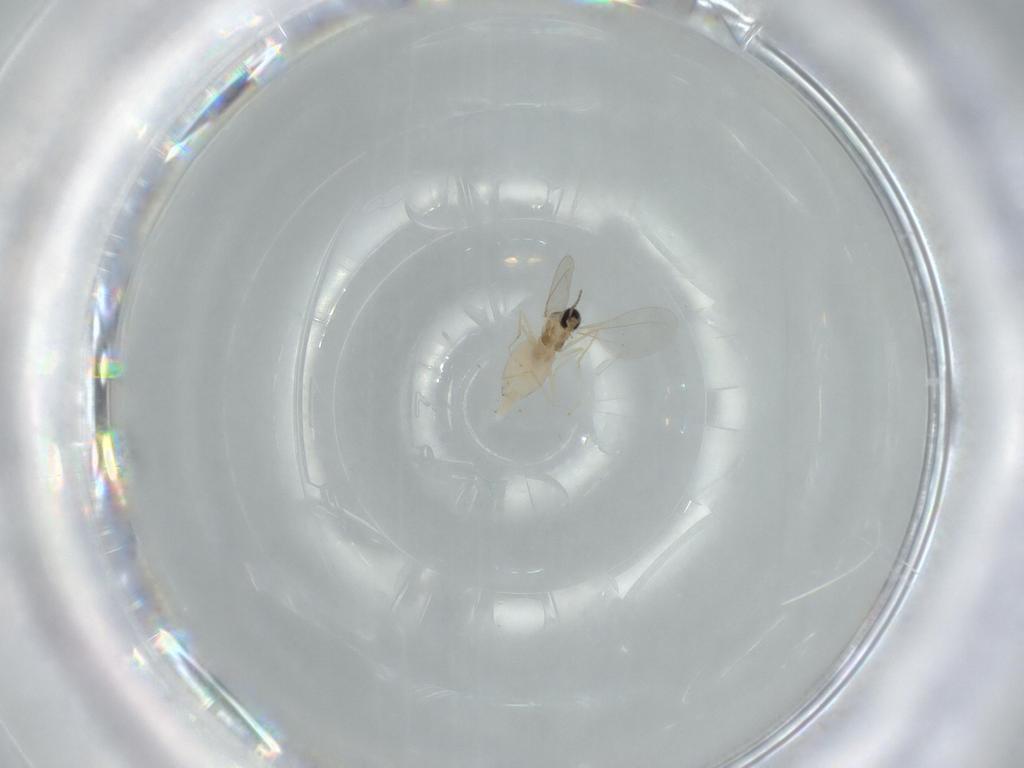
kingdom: Animalia
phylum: Arthropoda
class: Insecta
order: Diptera
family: Cecidomyiidae
